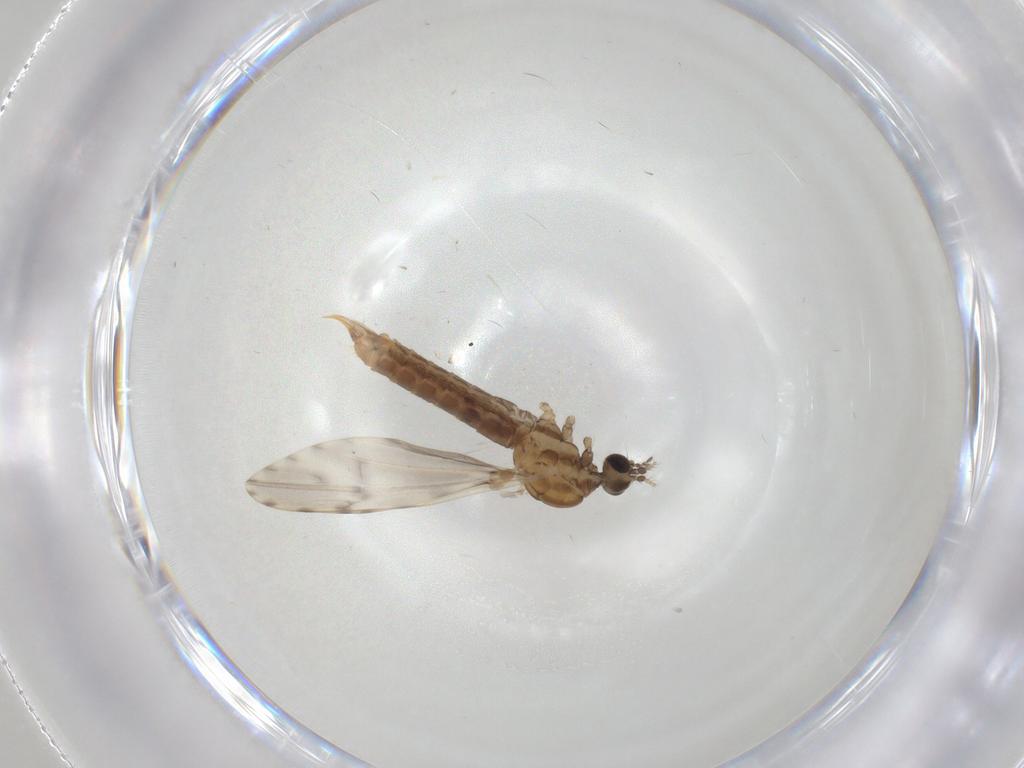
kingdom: Animalia
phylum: Arthropoda
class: Insecta
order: Diptera
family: Limoniidae
